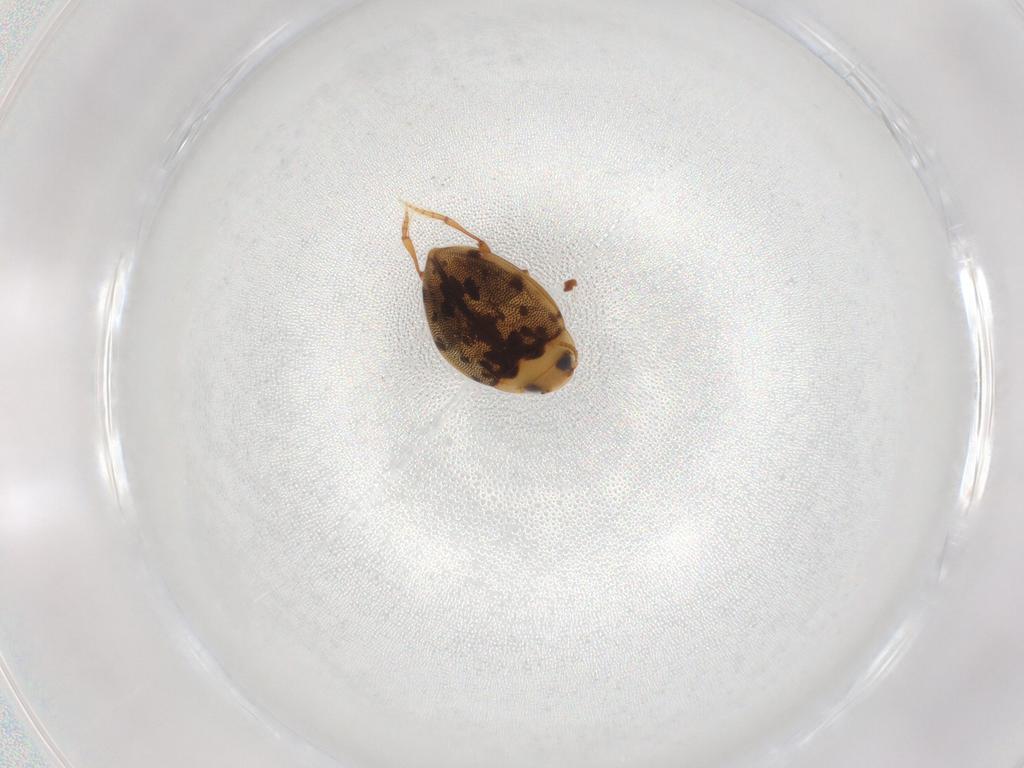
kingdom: Animalia
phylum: Arthropoda
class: Insecta
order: Coleoptera
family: Dytiscidae
